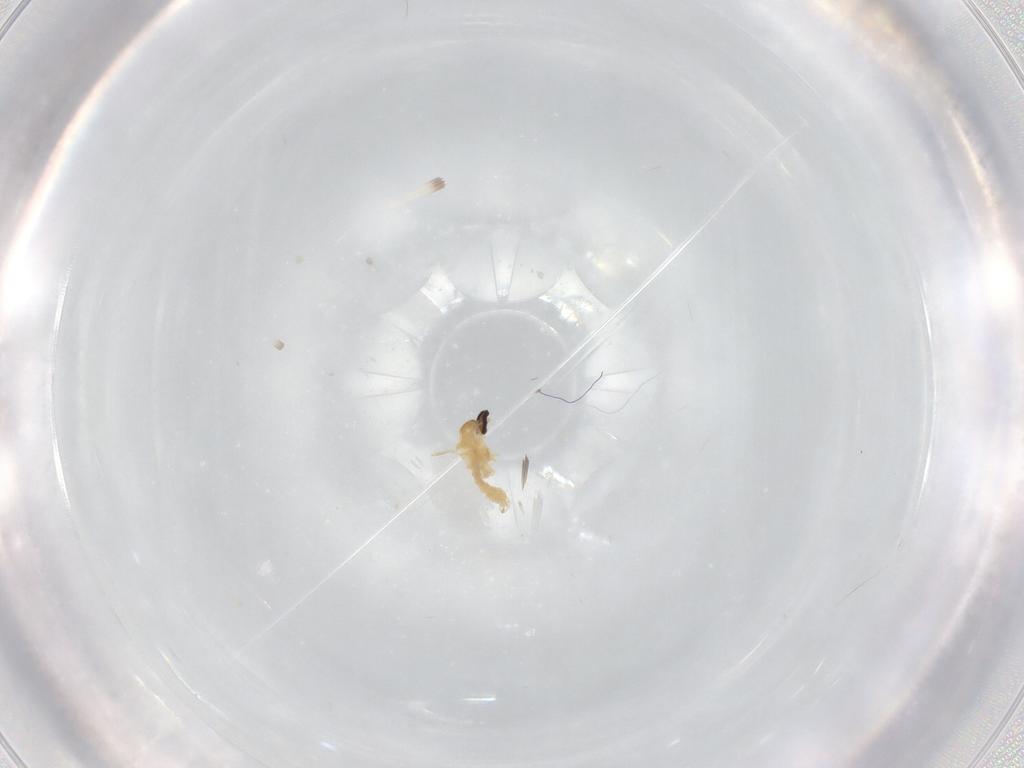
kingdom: Animalia
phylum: Arthropoda
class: Insecta
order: Diptera
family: Cecidomyiidae
